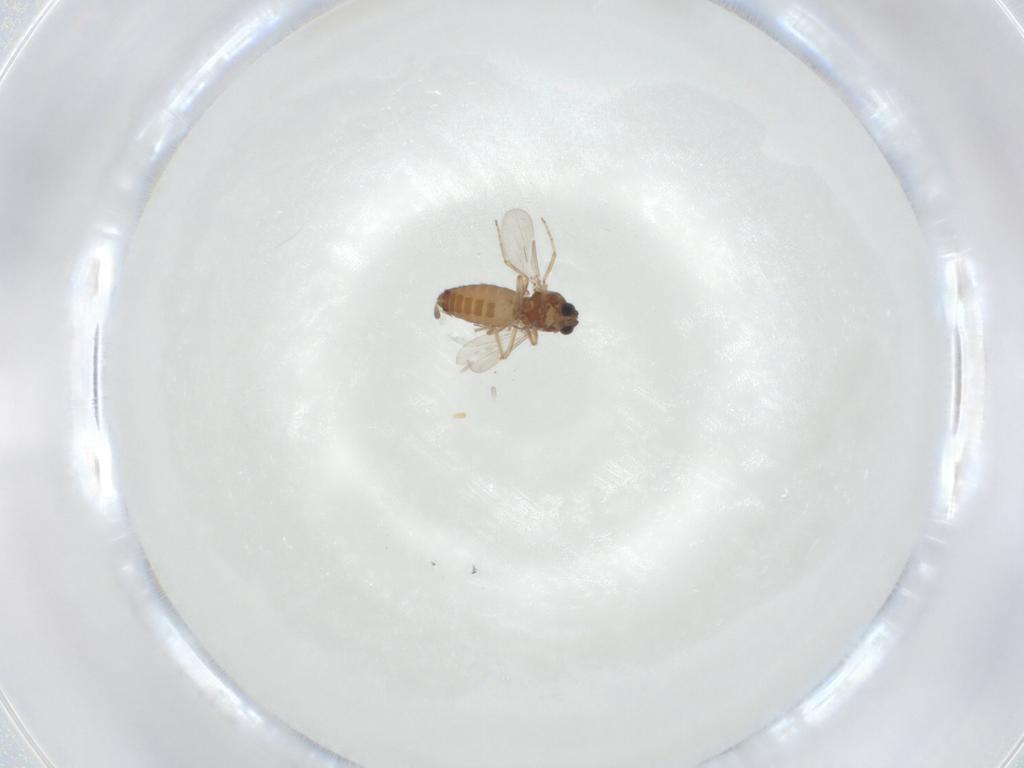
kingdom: Animalia
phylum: Arthropoda
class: Insecta
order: Diptera
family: Ceratopogonidae
